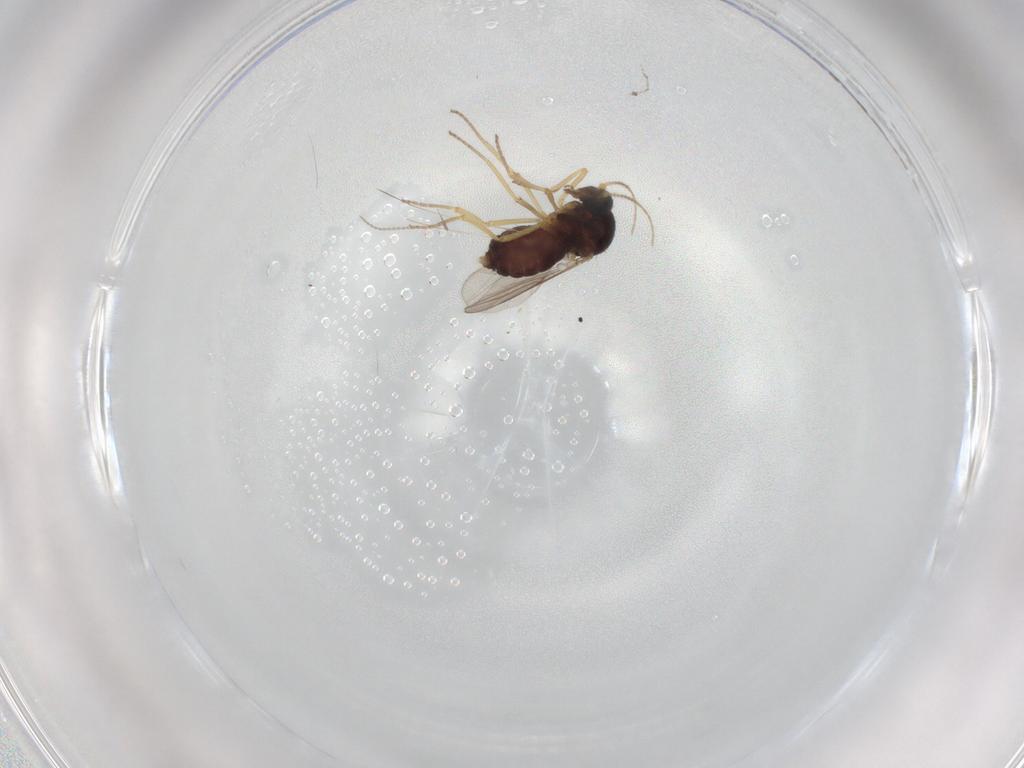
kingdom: Animalia
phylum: Arthropoda
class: Insecta
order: Diptera
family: Ceratopogonidae
